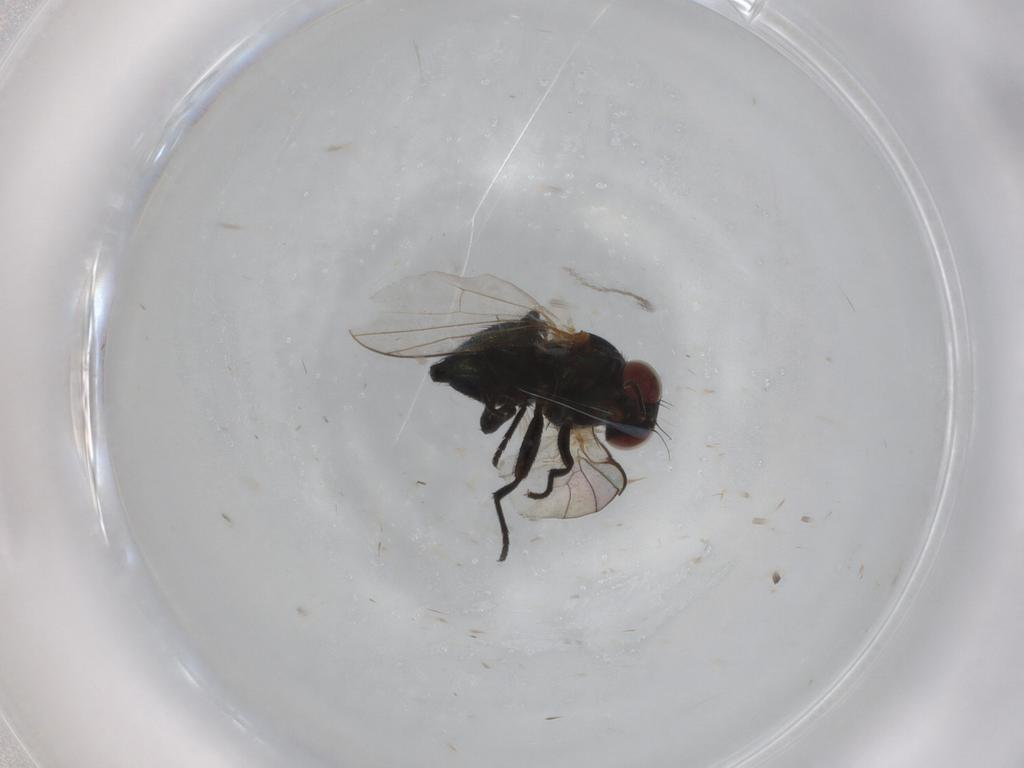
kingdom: Animalia
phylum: Arthropoda
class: Insecta
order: Diptera
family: Agromyzidae
